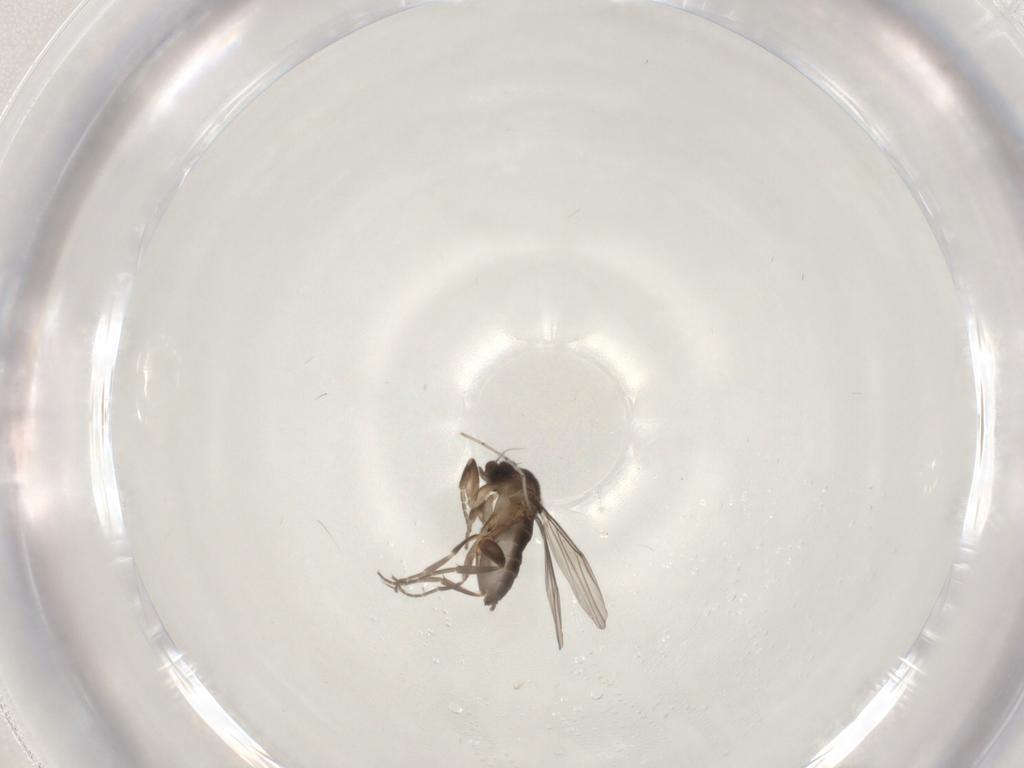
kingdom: Animalia
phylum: Arthropoda
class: Insecta
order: Diptera
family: Phoridae
